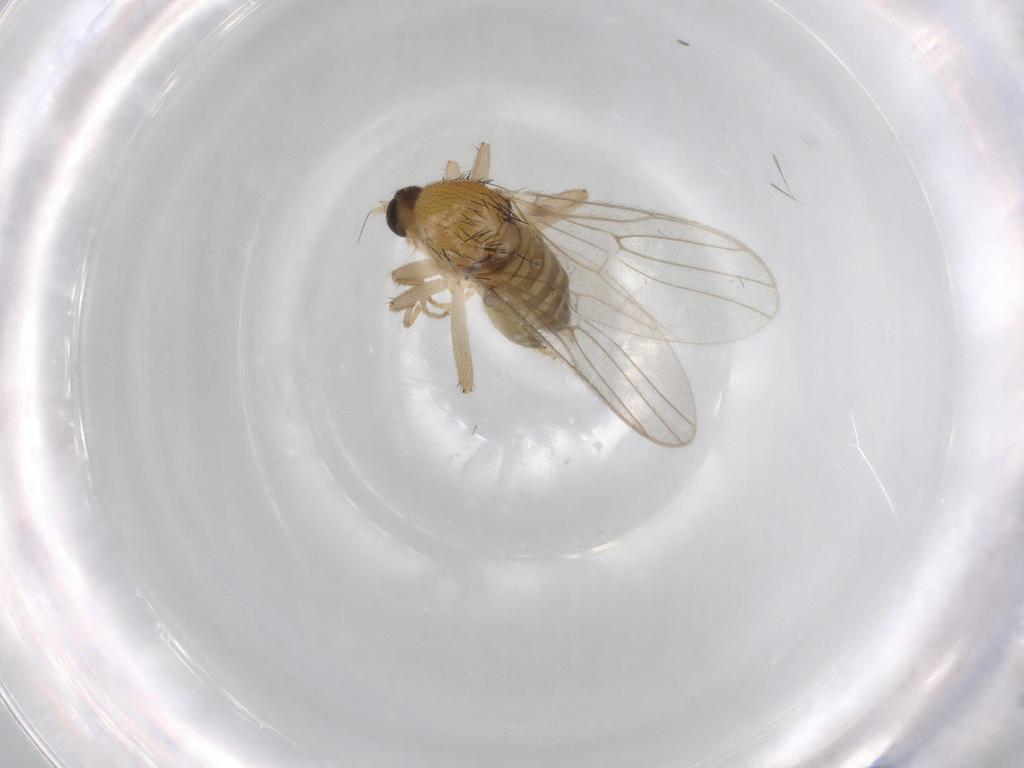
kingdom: Animalia
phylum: Arthropoda
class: Insecta
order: Diptera
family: Hybotidae
